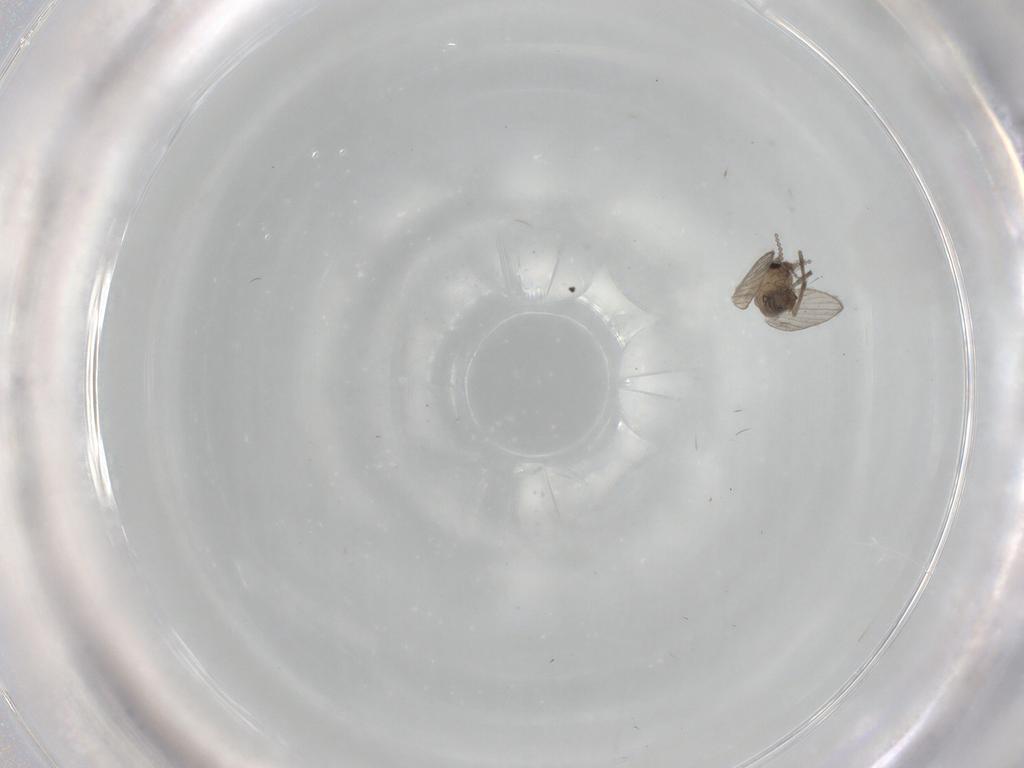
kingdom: Animalia
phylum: Arthropoda
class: Insecta
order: Diptera
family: Psychodidae
